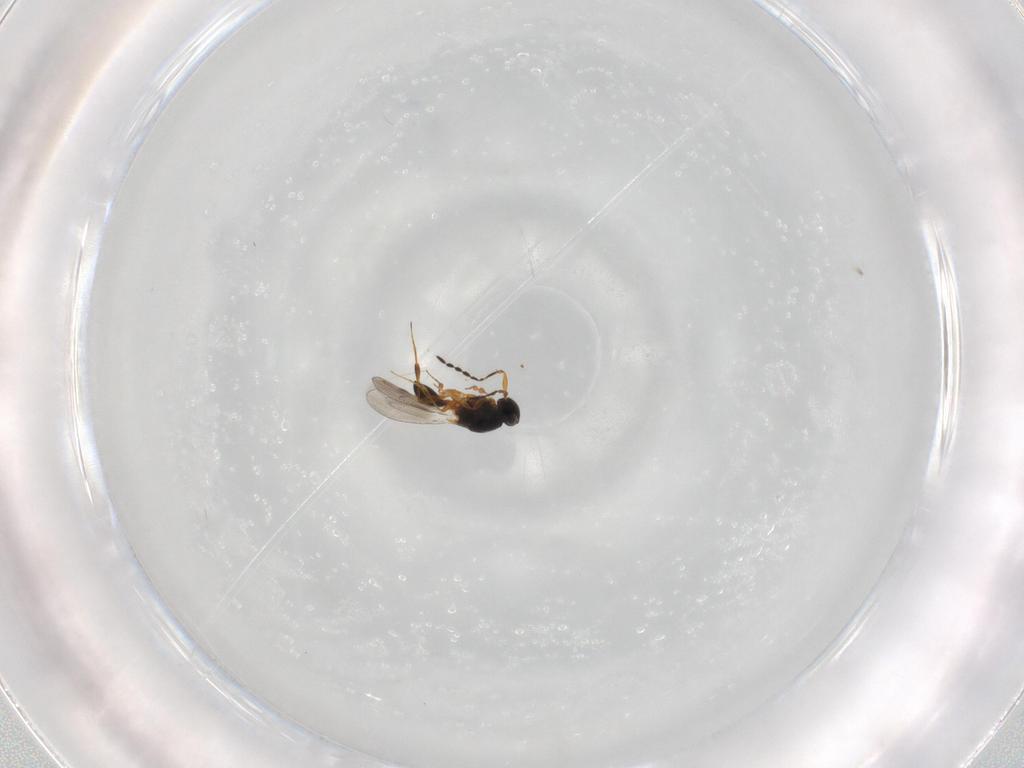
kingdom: Animalia
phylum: Arthropoda
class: Insecta
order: Hymenoptera
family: Platygastridae
